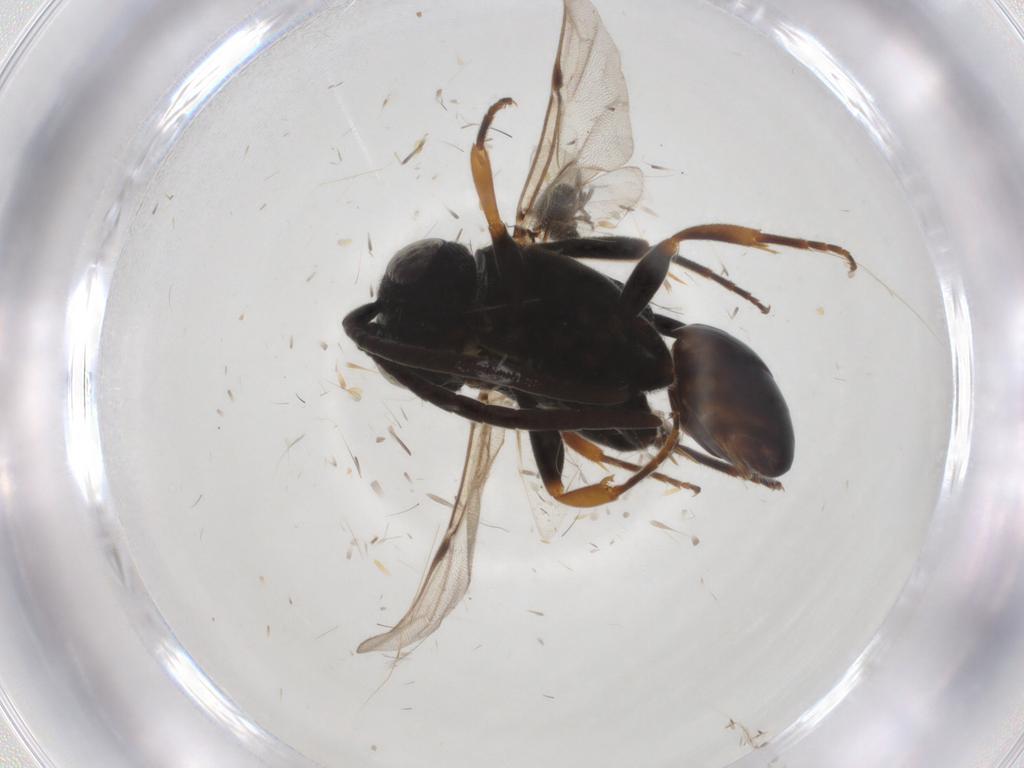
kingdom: Animalia
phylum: Arthropoda
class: Insecta
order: Hymenoptera
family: Evaniidae
